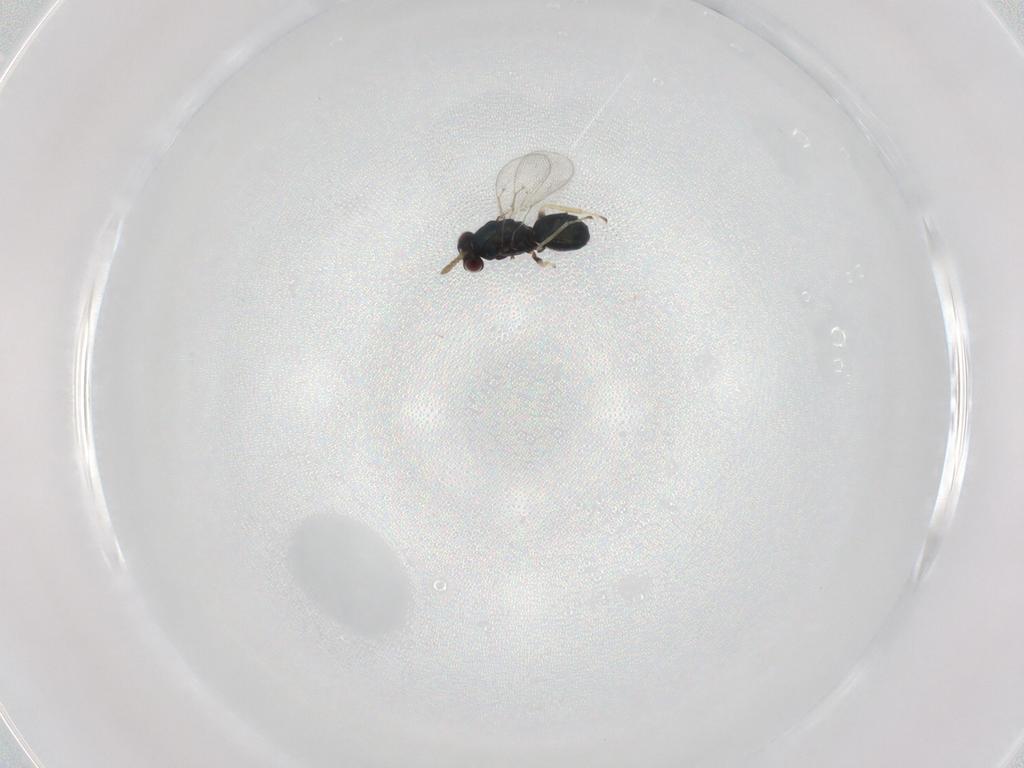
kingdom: Animalia
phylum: Arthropoda
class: Insecta
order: Hymenoptera
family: Eulophidae
